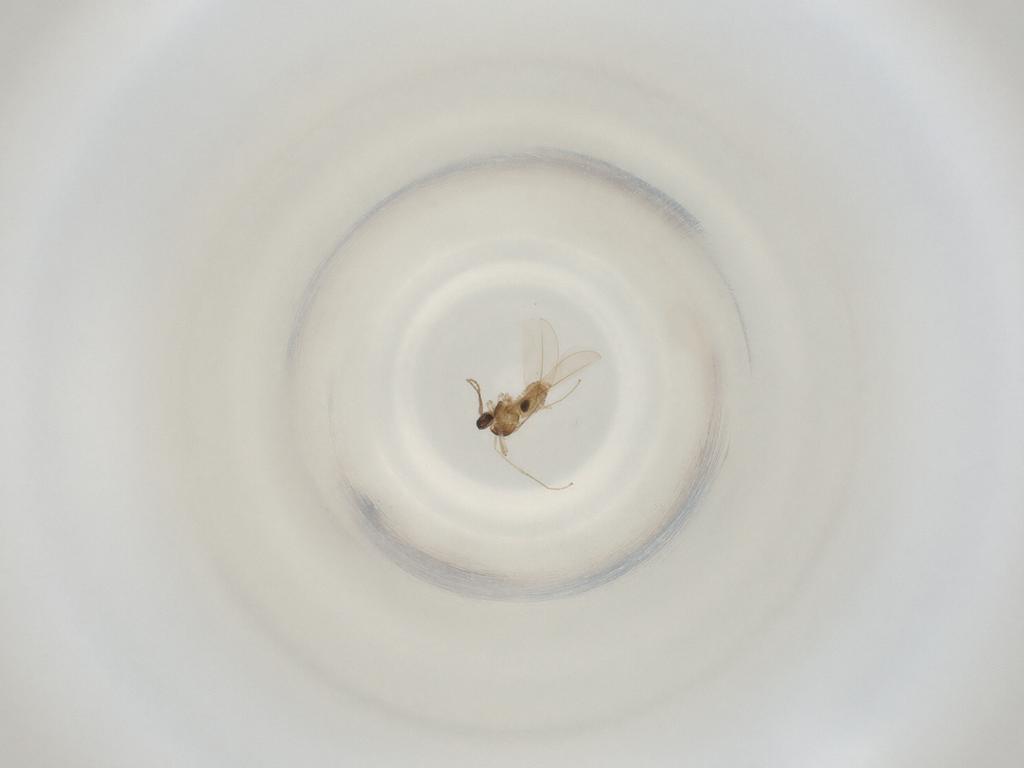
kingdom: Animalia
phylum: Arthropoda
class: Insecta
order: Diptera
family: Cecidomyiidae
